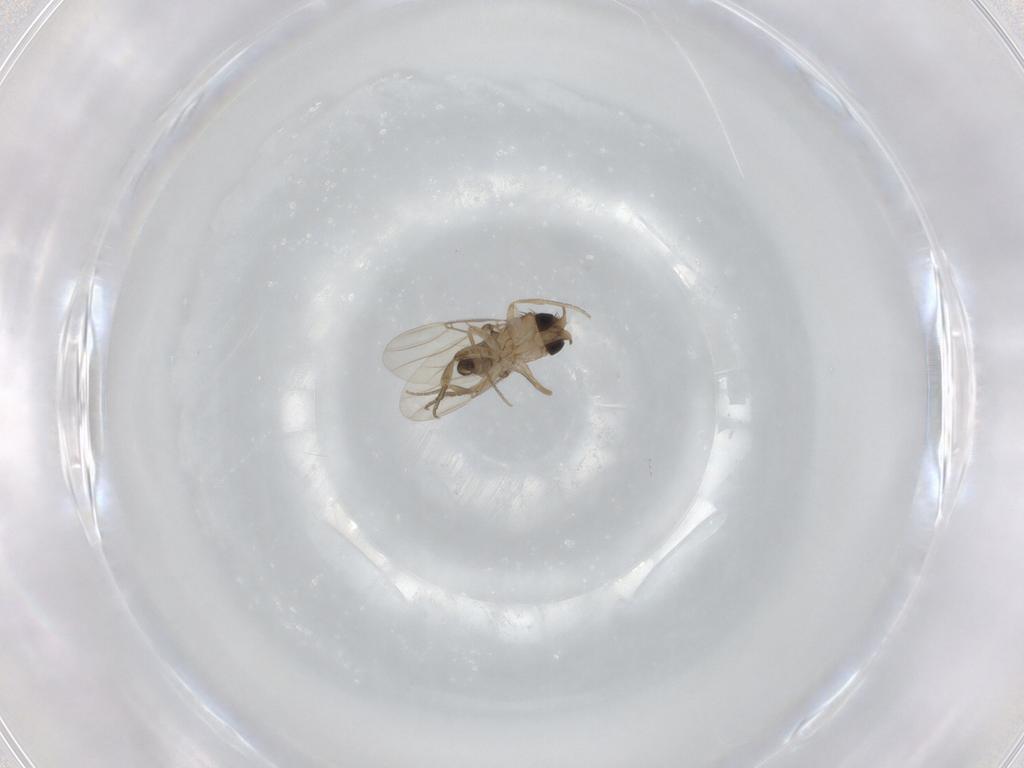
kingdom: Animalia
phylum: Arthropoda
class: Insecta
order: Diptera
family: Phoridae
